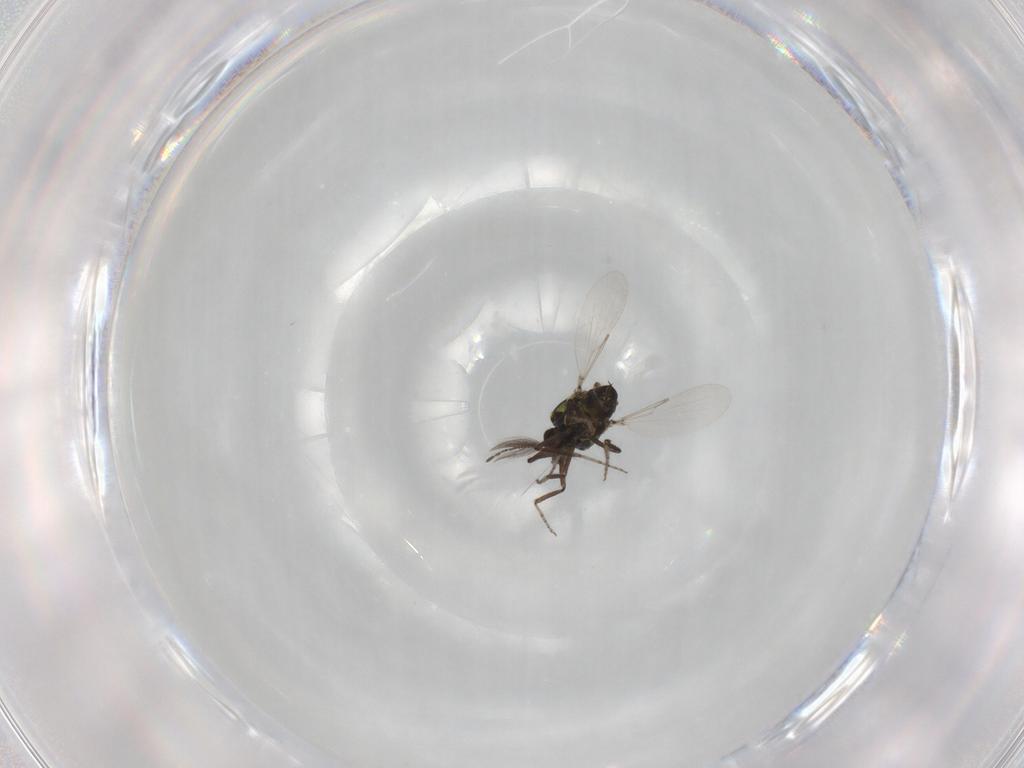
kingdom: Animalia
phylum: Arthropoda
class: Insecta
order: Diptera
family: Ceratopogonidae
